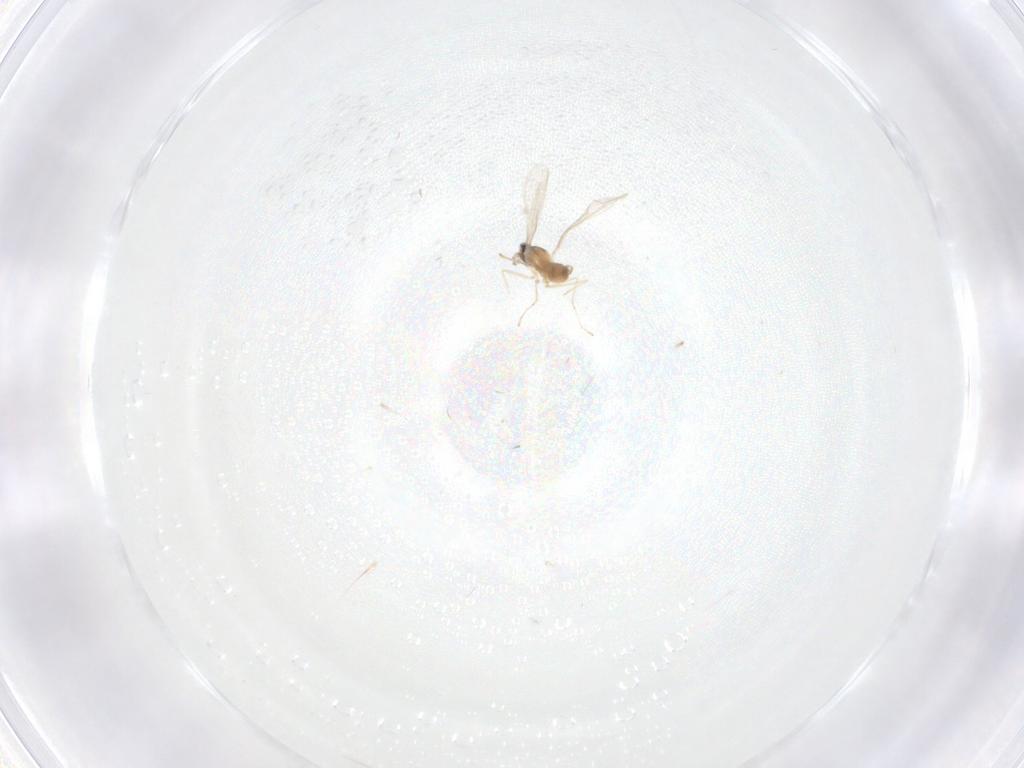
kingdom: Animalia
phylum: Arthropoda
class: Insecta
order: Diptera
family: Cecidomyiidae
